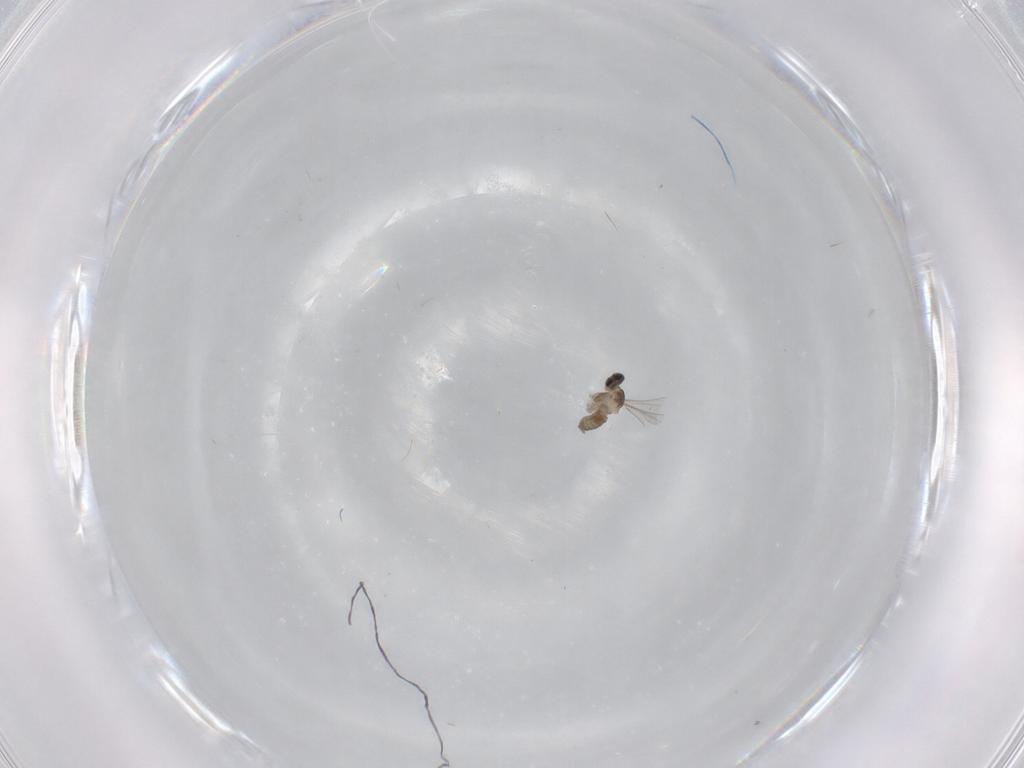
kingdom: Animalia
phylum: Arthropoda
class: Insecta
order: Diptera
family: Cecidomyiidae
